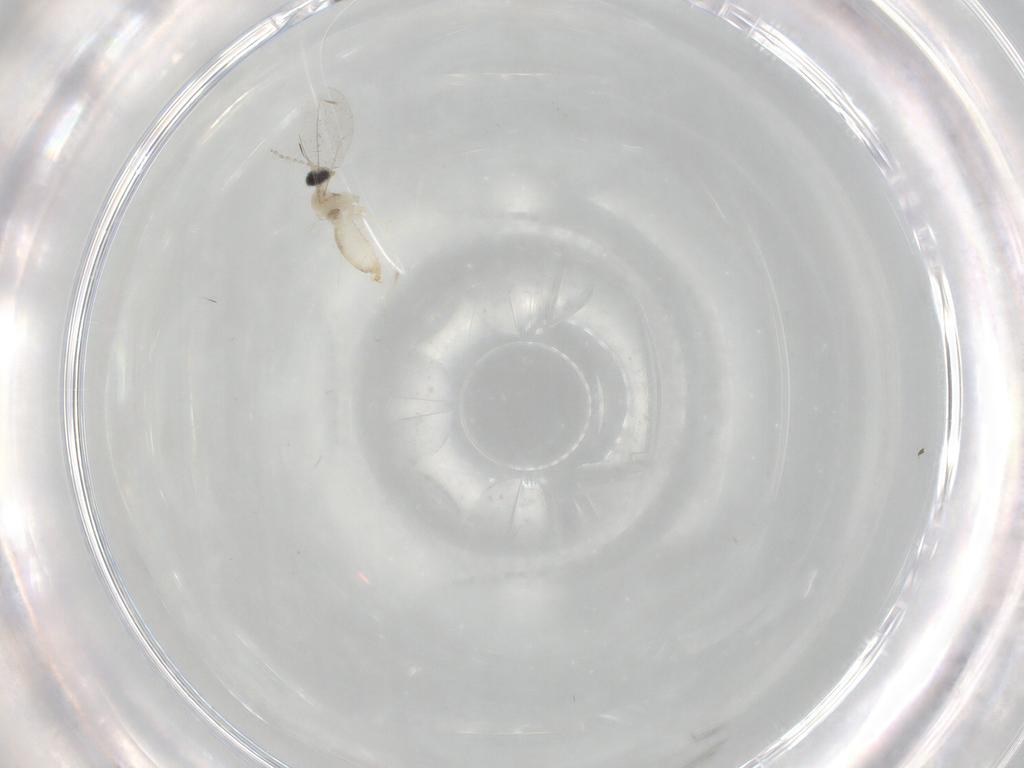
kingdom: Animalia
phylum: Arthropoda
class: Insecta
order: Diptera
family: Cecidomyiidae
